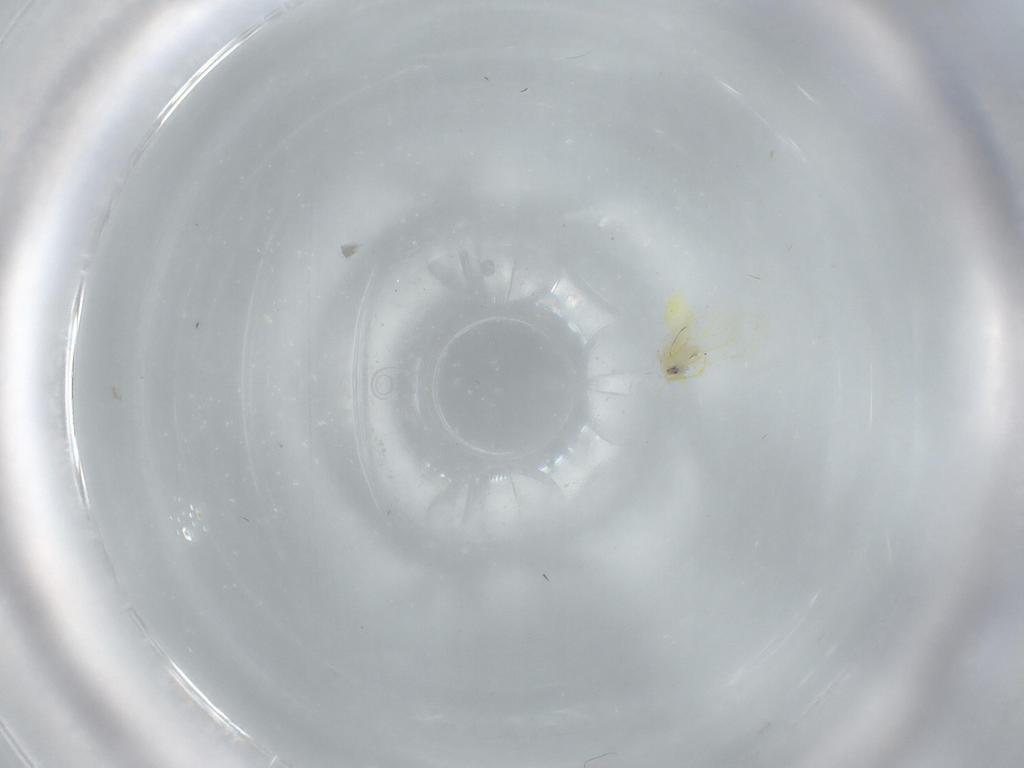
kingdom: Animalia
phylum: Arthropoda
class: Insecta
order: Hemiptera
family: Aleyrodidae
